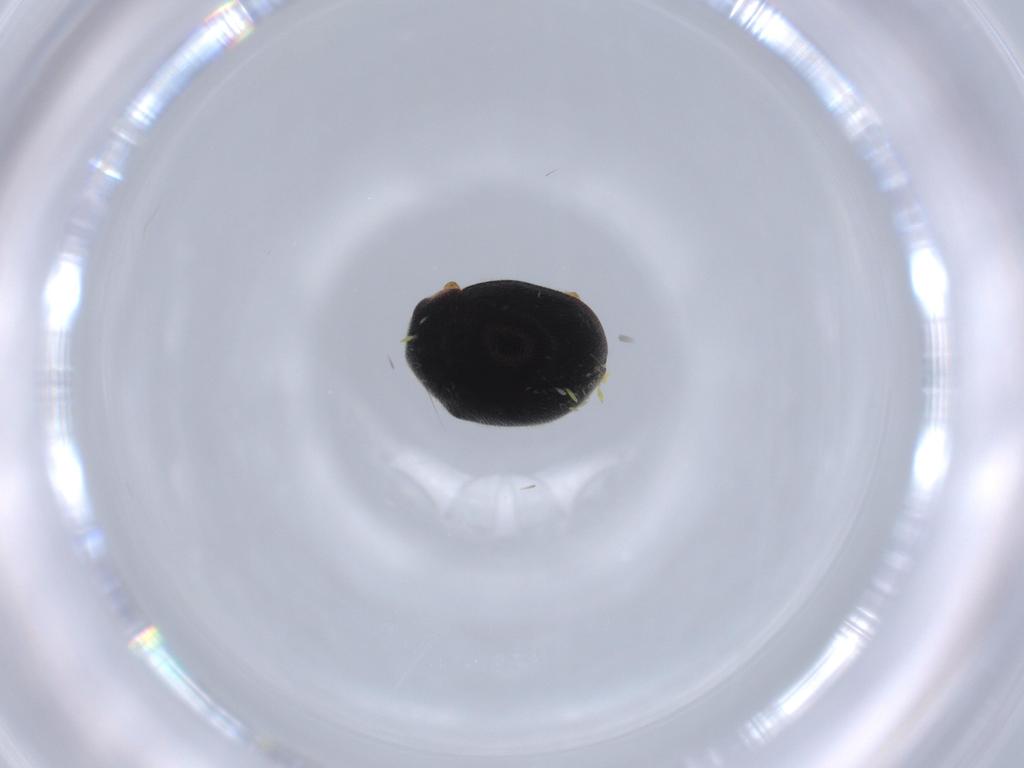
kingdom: Animalia
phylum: Arthropoda
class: Insecta
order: Coleoptera
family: Coccinellidae
